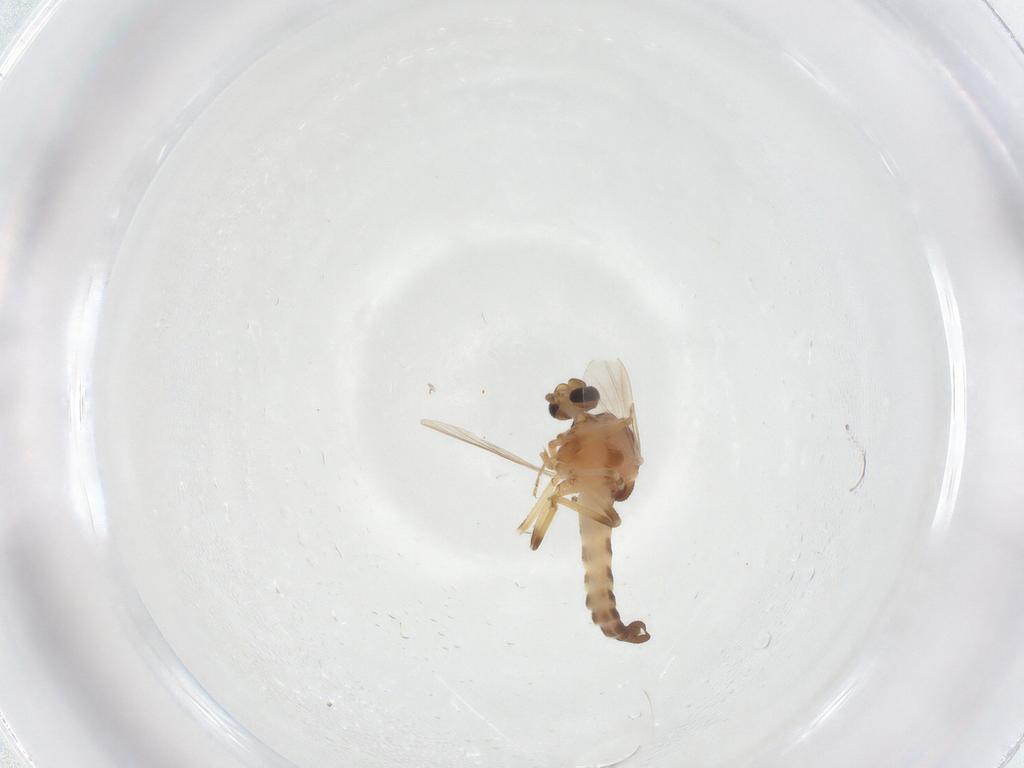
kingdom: Animalia
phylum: Arthropoda
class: Insecta
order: Diptera
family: Ceratopogonidae
